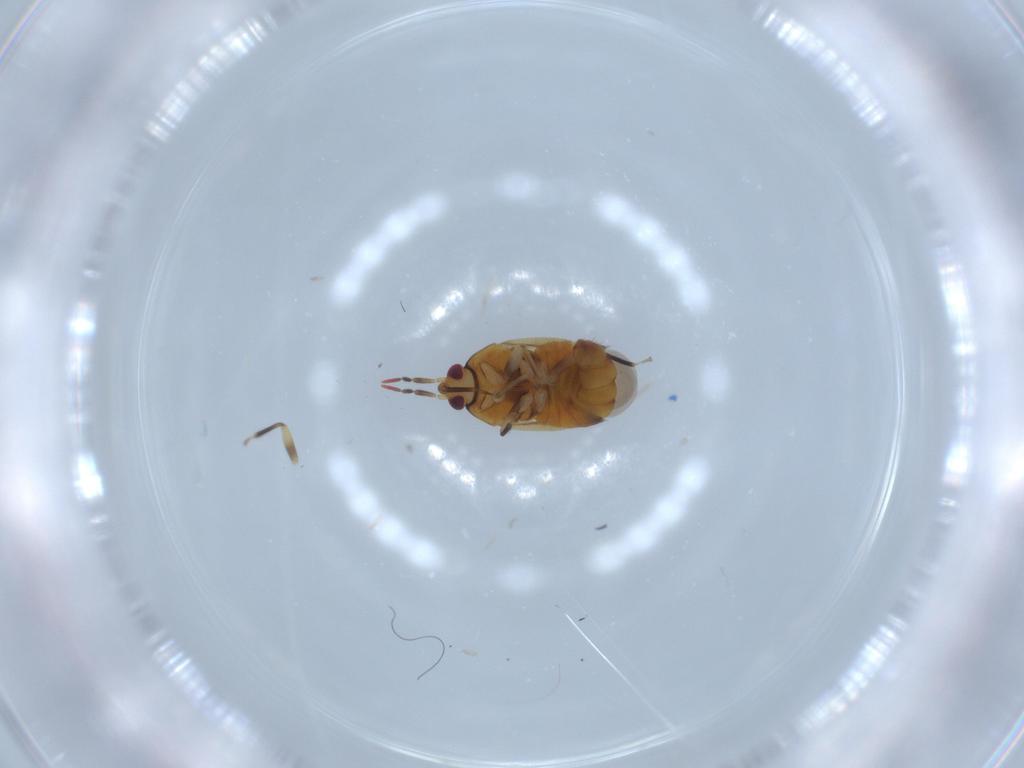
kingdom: Animalia
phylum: Arthropoda
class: Insecta
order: Hemiptera
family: Anthocoridae
